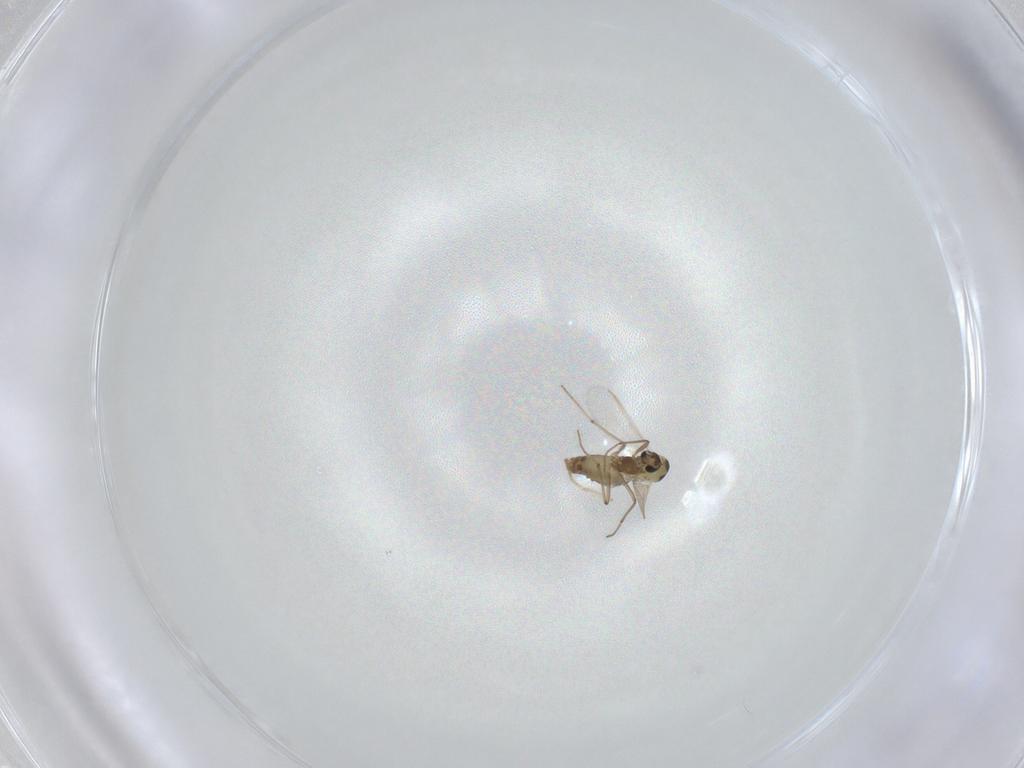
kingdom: Animalia
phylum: Arthropoda
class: Insecta
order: Diptera
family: Chironomidae
